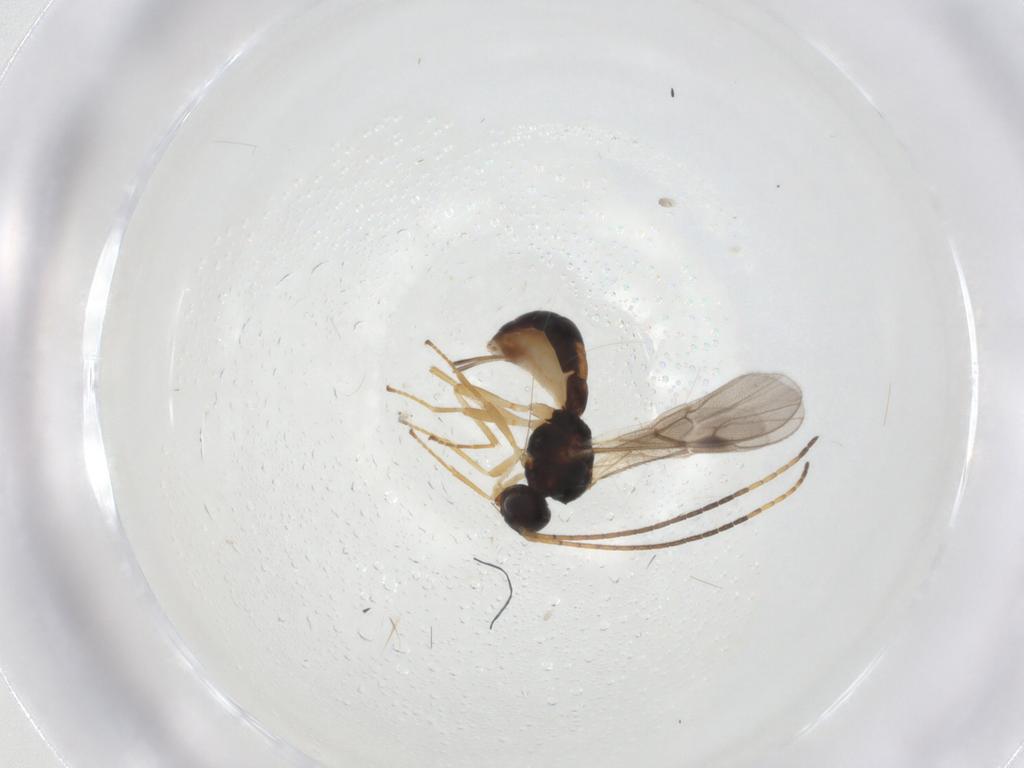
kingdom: Animalia
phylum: Arthropoda
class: Insecta
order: Hymenoptera
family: Braconidae
